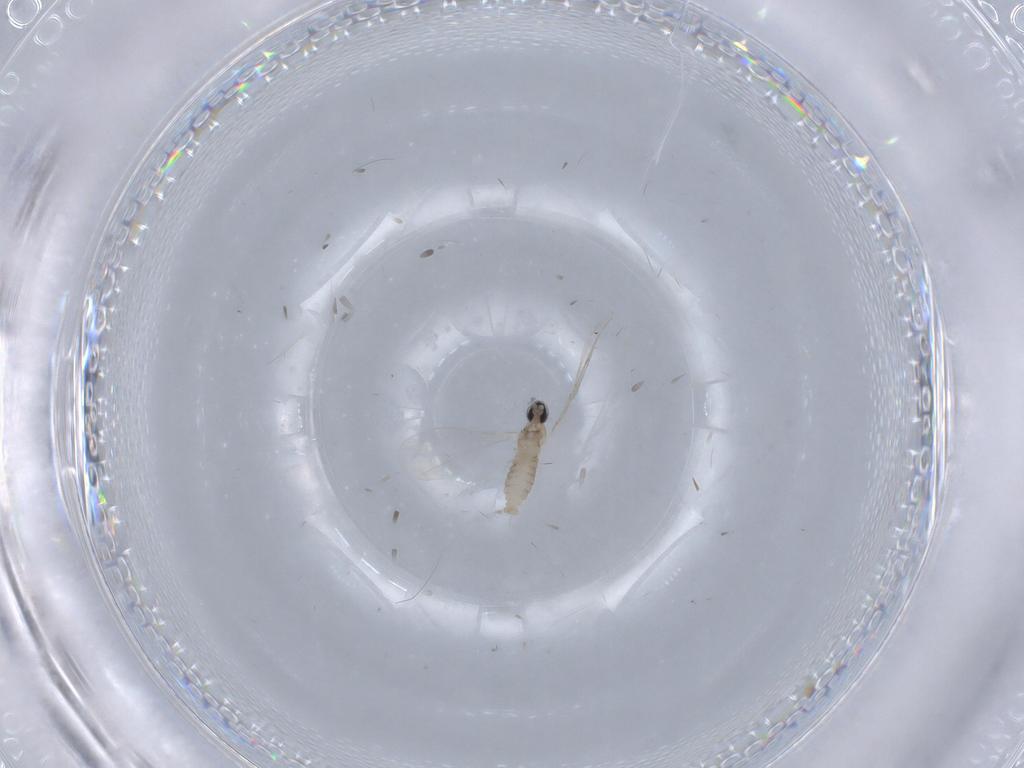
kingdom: Animalia
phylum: Arthropoda
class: Insecta
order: Diptera
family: Cecidomyiidae
